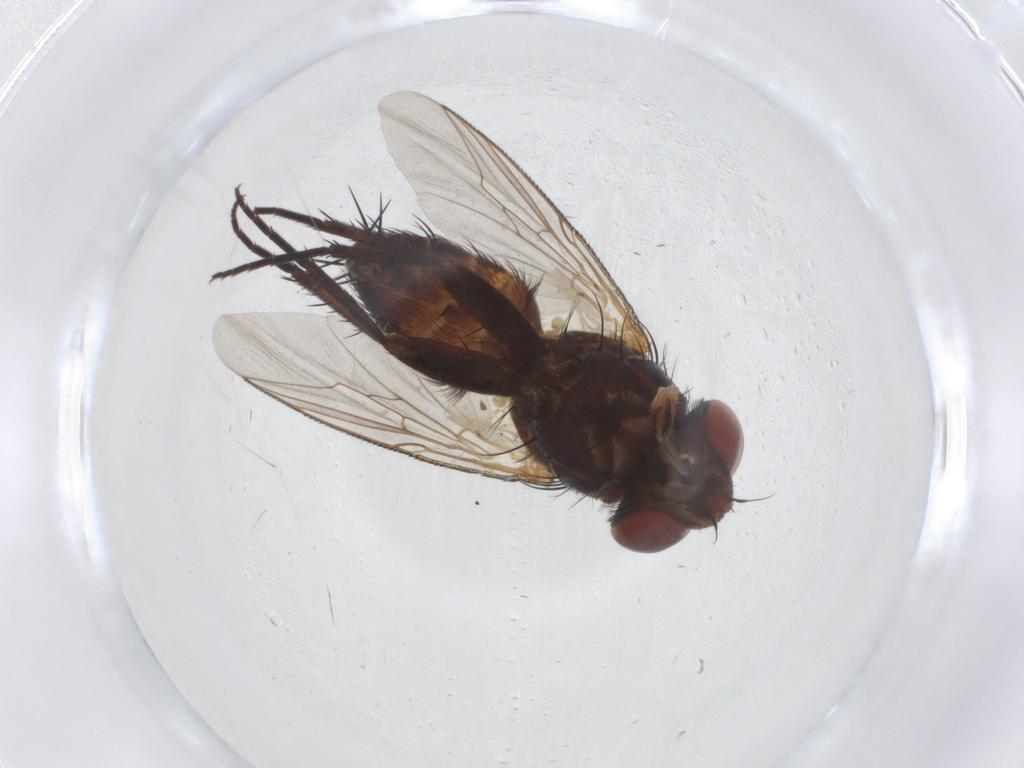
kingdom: Animalia
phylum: Arthropoda
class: Insecta
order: Diptera
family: Sarcophagidae
